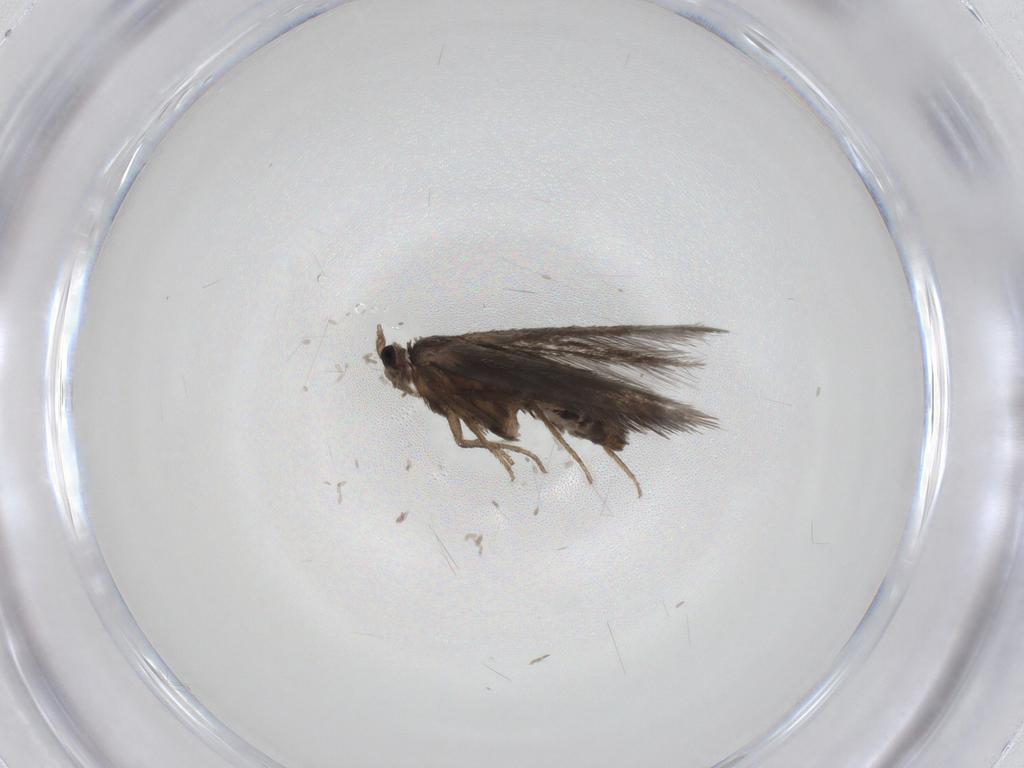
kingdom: Animalia
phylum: Arthropoda
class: Insecta
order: Lepidoptera
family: Nepticulidae
